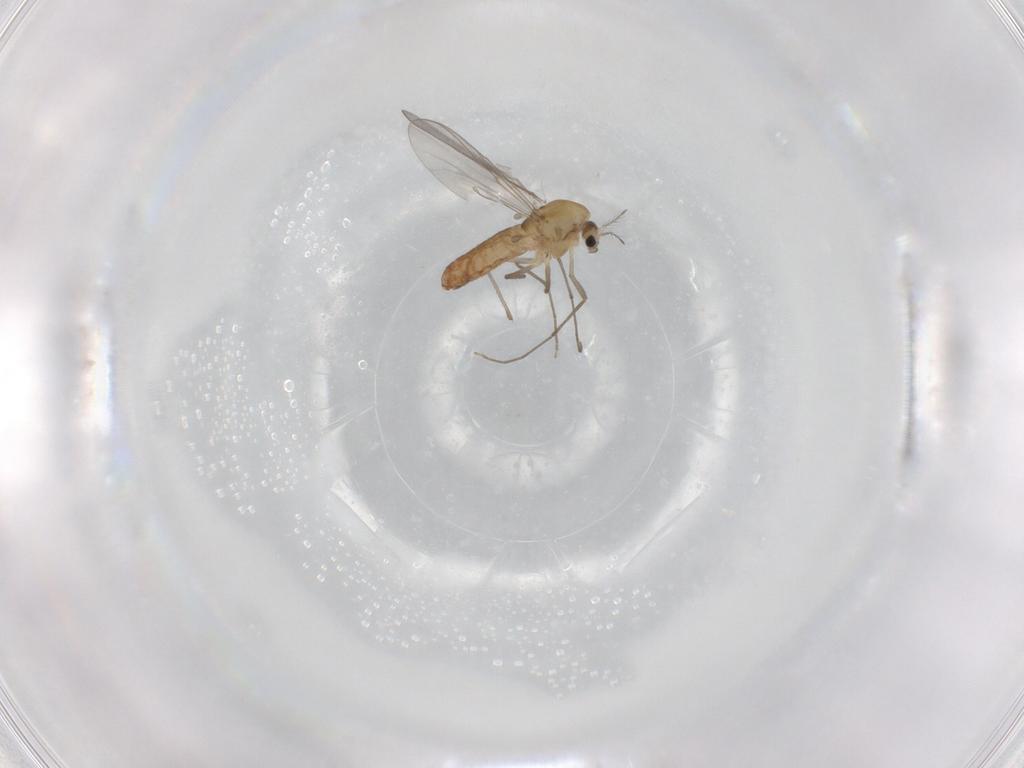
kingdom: Animalia
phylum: Arthropoda
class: Insecta
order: Diptera
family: Chironomidae
